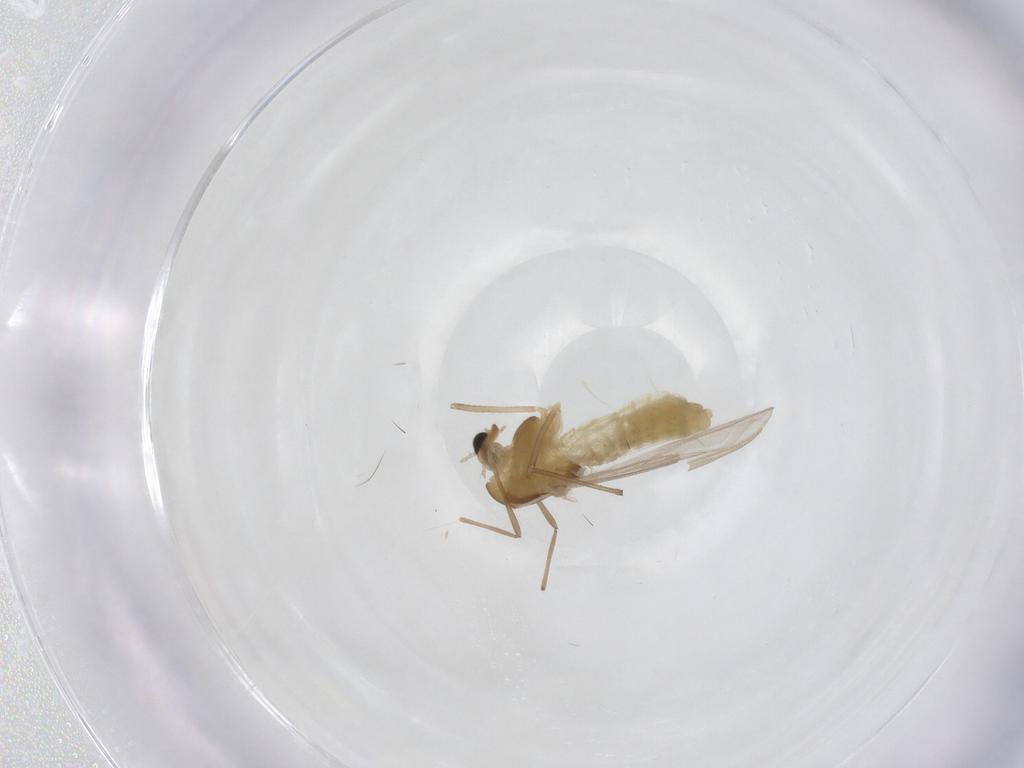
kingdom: Animalia
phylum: Arthropoda
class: Insecta
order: Diptera
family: Chironomidae
